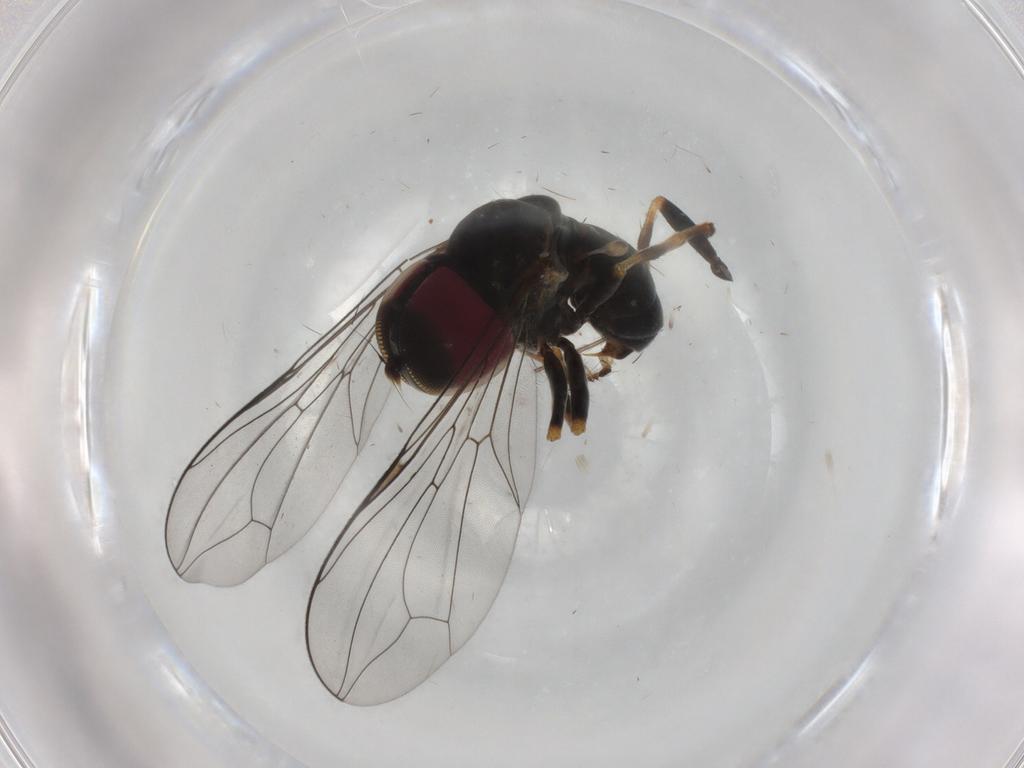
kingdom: Animalia
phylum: Arthropoda
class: Insecta
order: Diptera
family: Pipunculidae
